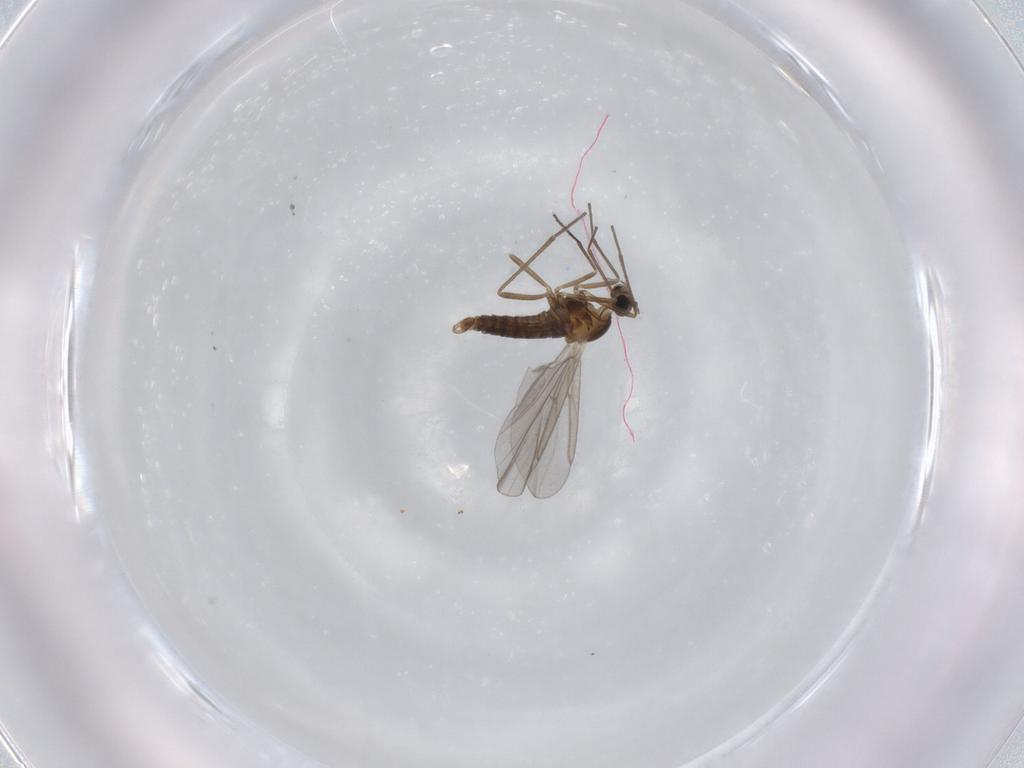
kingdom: Animalia
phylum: Arthropoda
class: Insecta
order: Diptera
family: Cecidomyiidae
